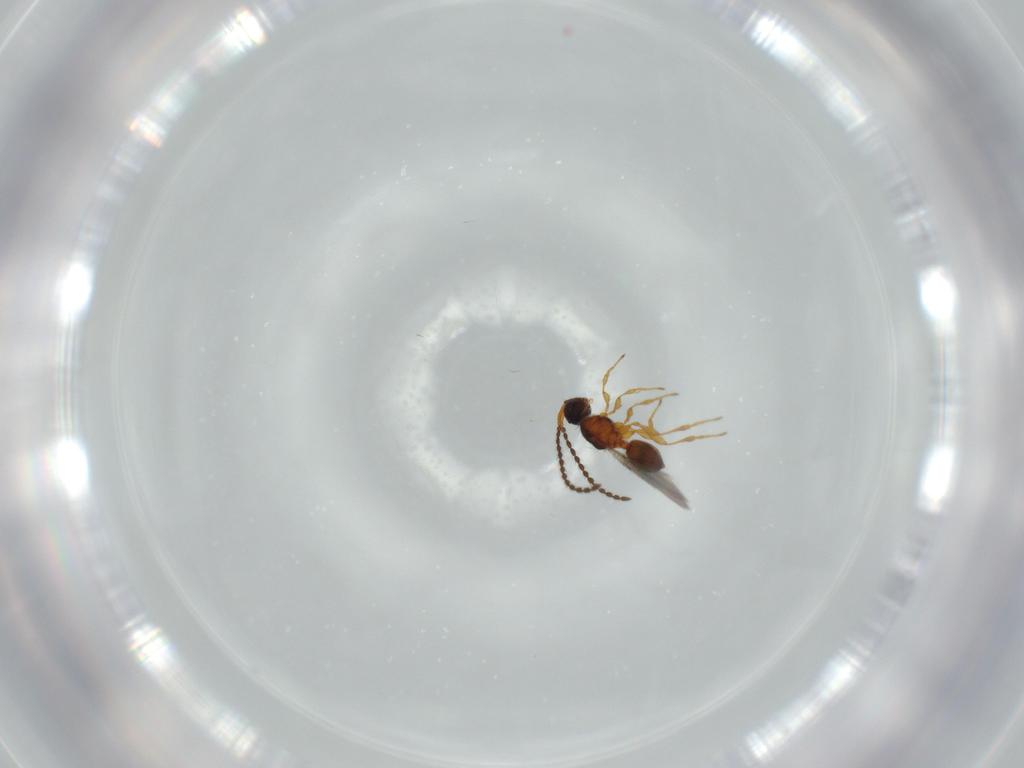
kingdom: Animalia
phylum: Arthropoda
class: Insecta
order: Hymenoptera
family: Diapriidae
